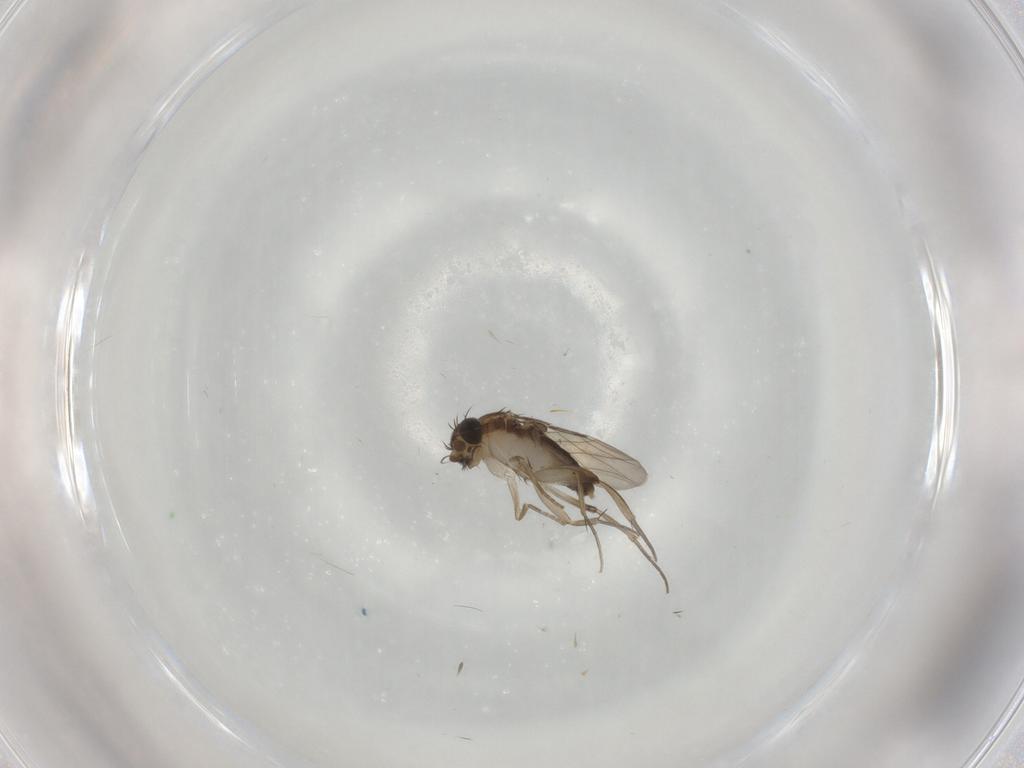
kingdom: Animalia
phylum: Arthropoda
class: Insecta
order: Diptera
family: Phoridae
